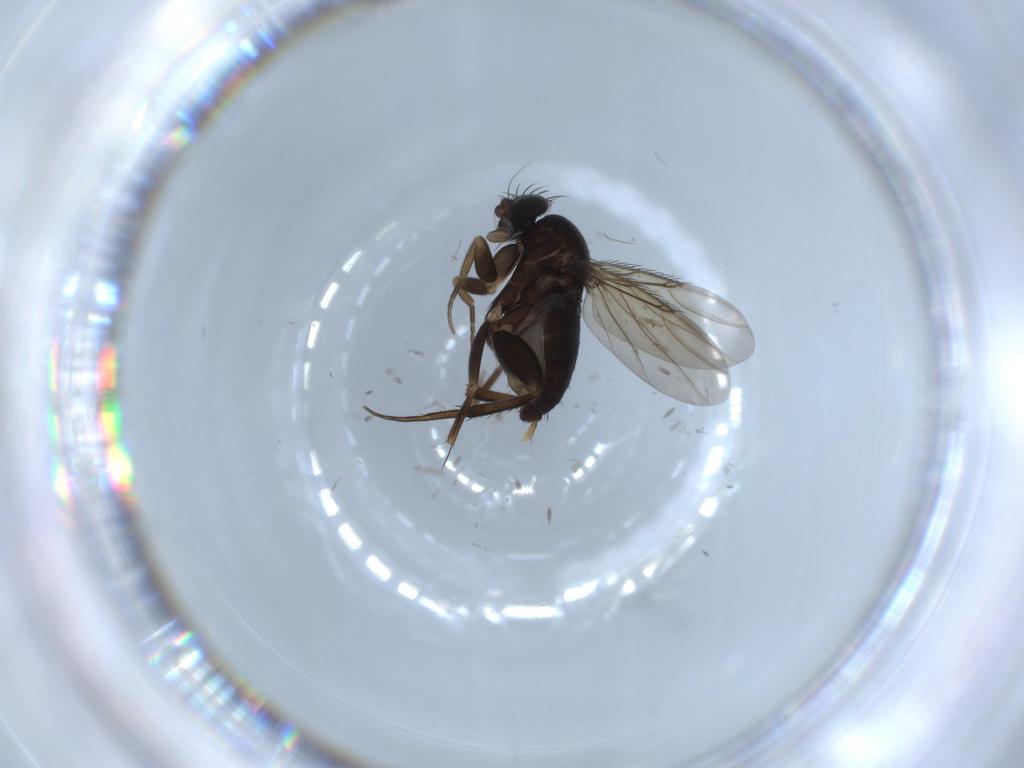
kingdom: Animalia
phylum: Arthropoda
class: Insecta
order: Diptera
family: Phoridae
